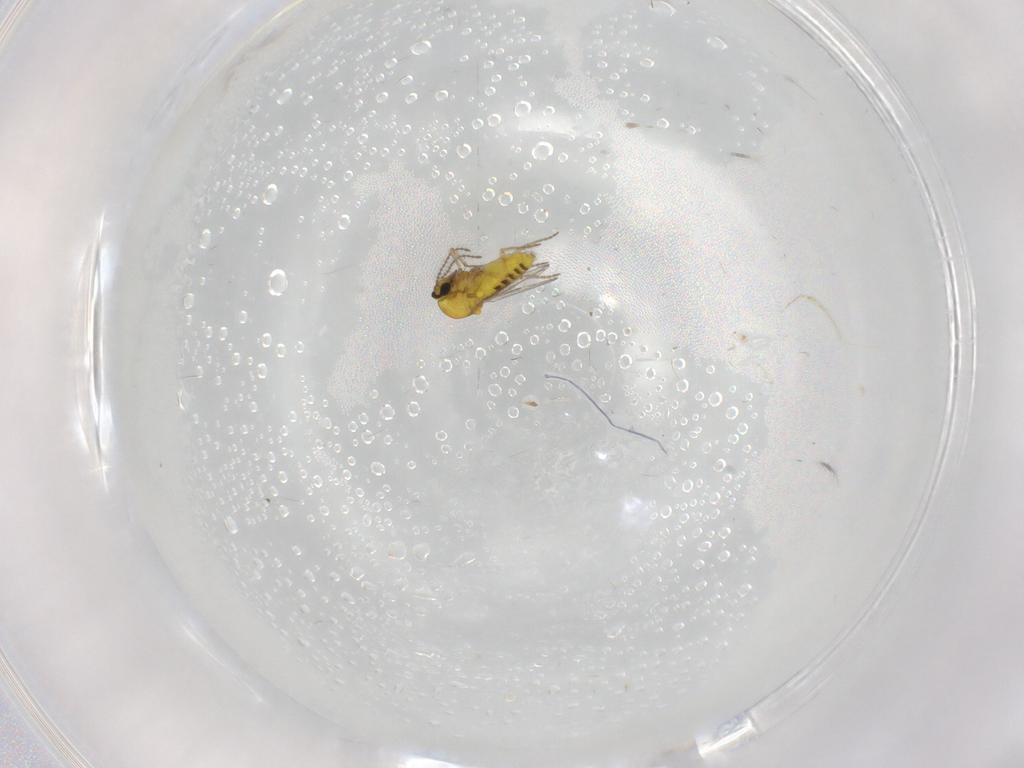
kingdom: Animalia
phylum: Arthropoda
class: Insecta
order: Diptera
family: Ceratopogonidae
